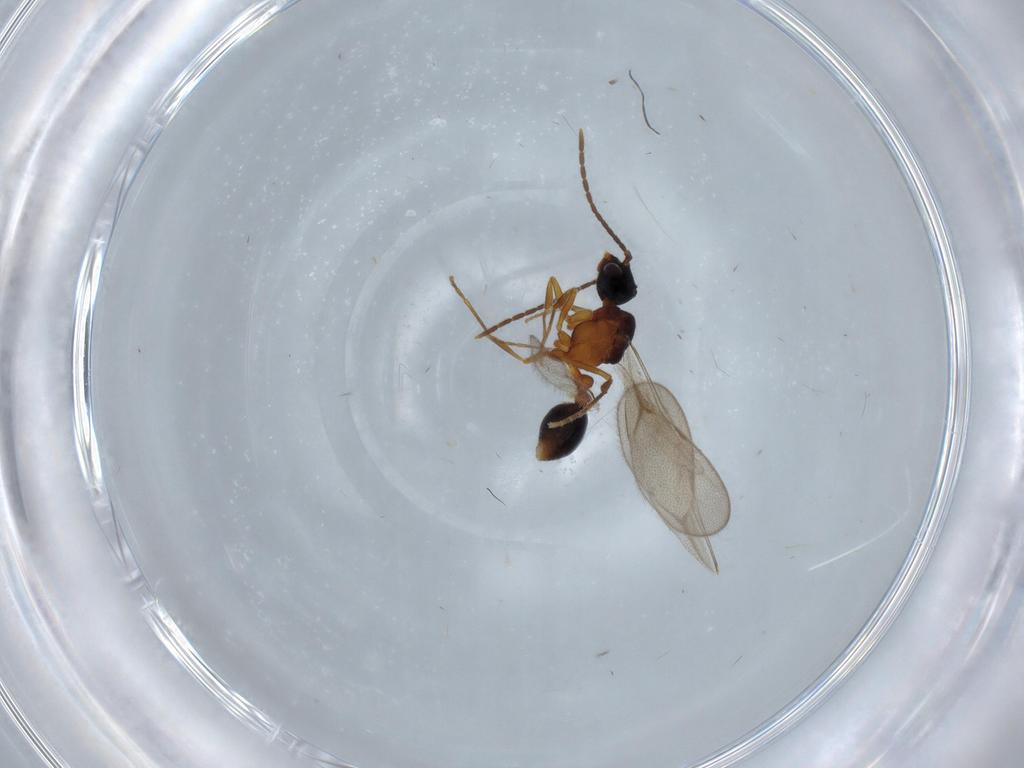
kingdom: Animalia
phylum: Arthropoda
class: Insecta
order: Hymenoptera
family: Formicidae
